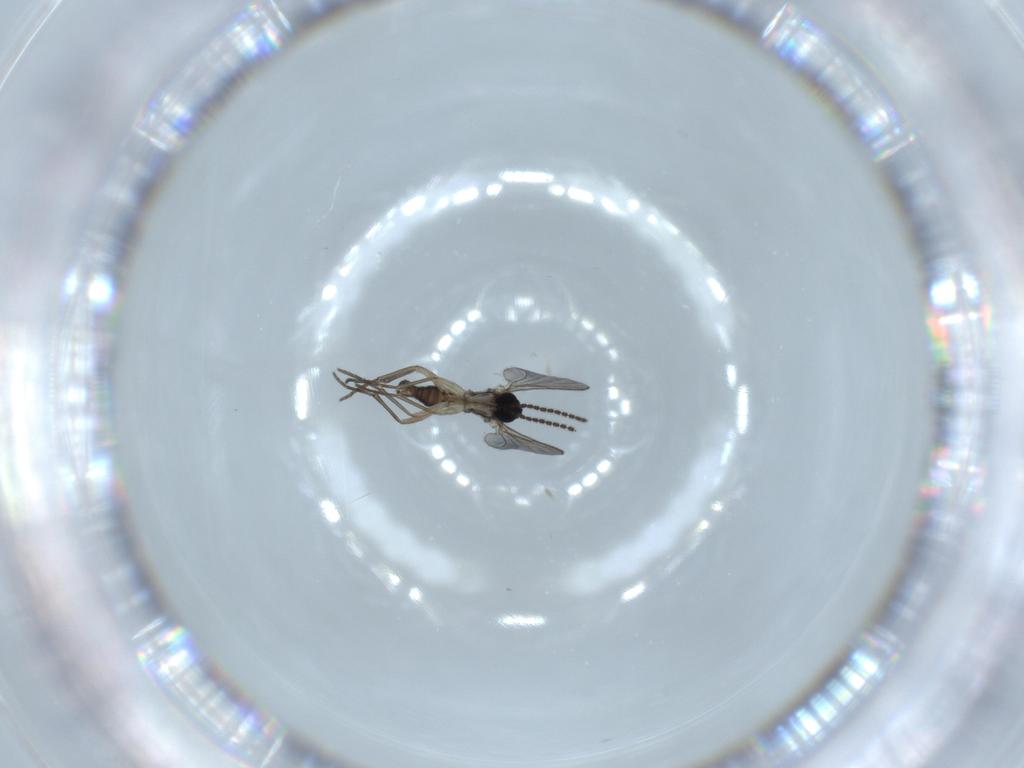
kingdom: Animalia
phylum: Arthropoda
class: Insecta
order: Diptera
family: Sciaridae
